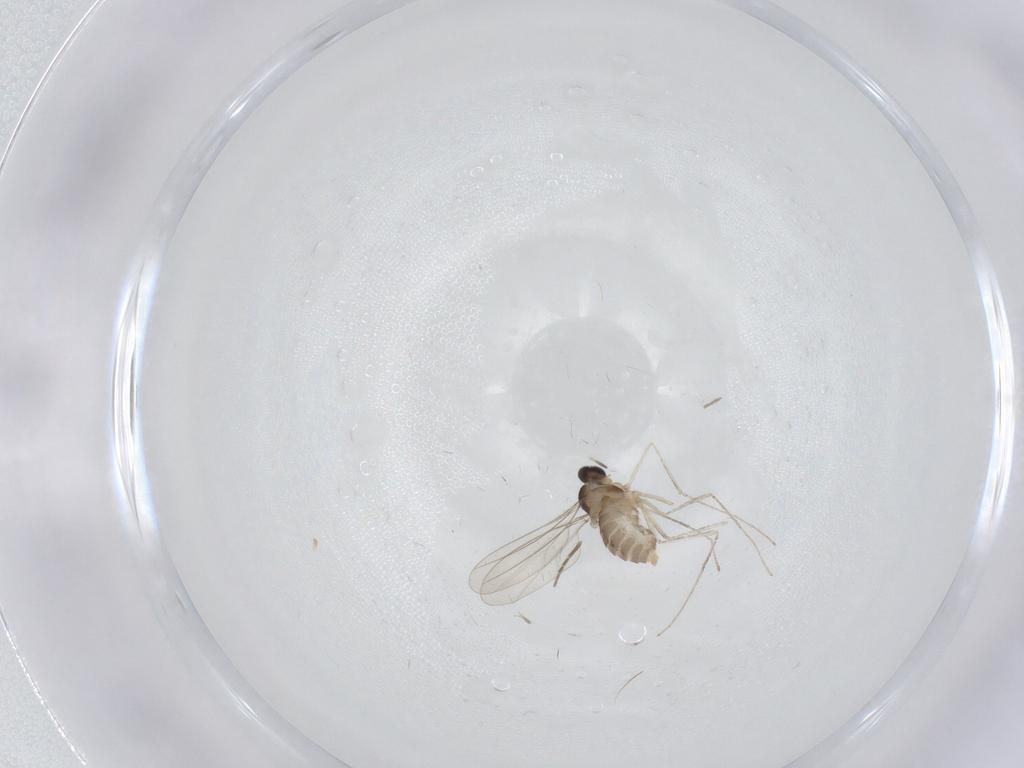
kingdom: Animalia
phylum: Arthropoda
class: Insecta
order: Diptera
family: Cecidomyiidae
